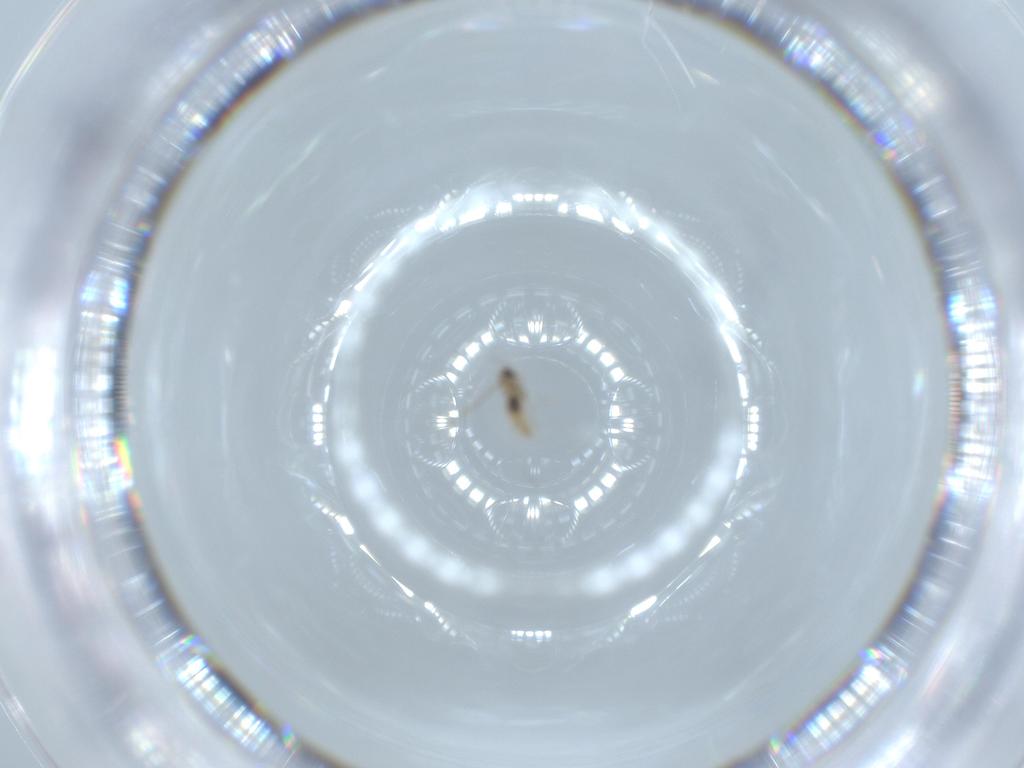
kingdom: Animalia
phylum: Arthropoda
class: Insecta
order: Diptera
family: Cecidomyiidae
